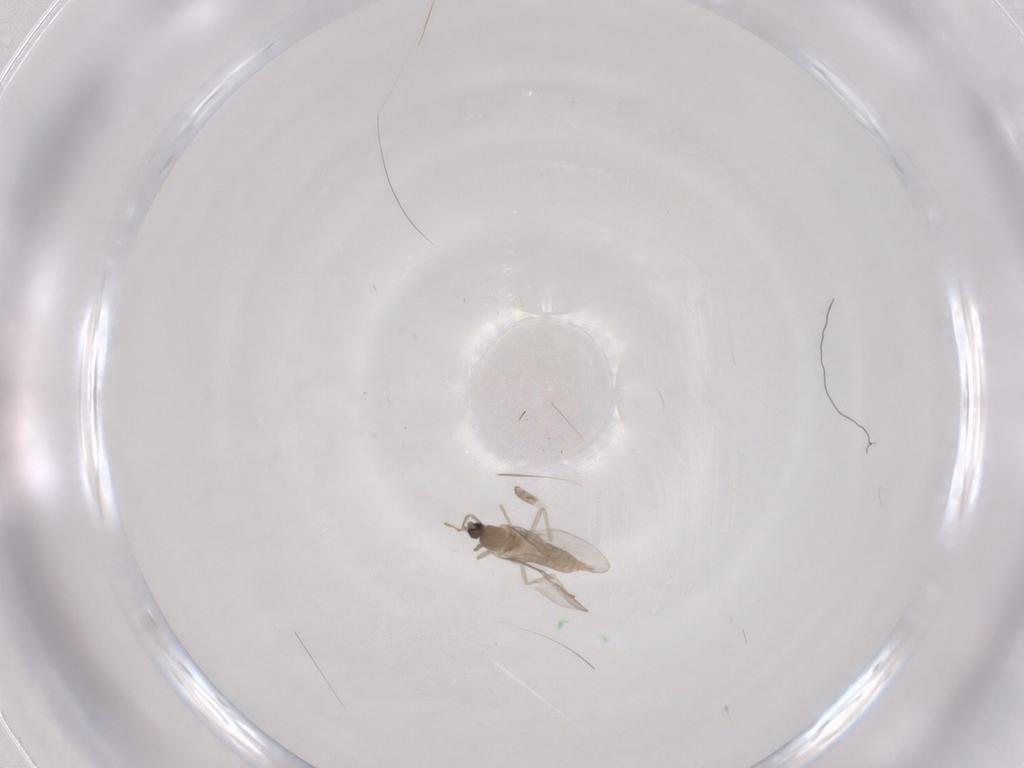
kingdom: Animalia
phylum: Arthropoda
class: Insecta
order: Diptera
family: Cecidomyiidae
